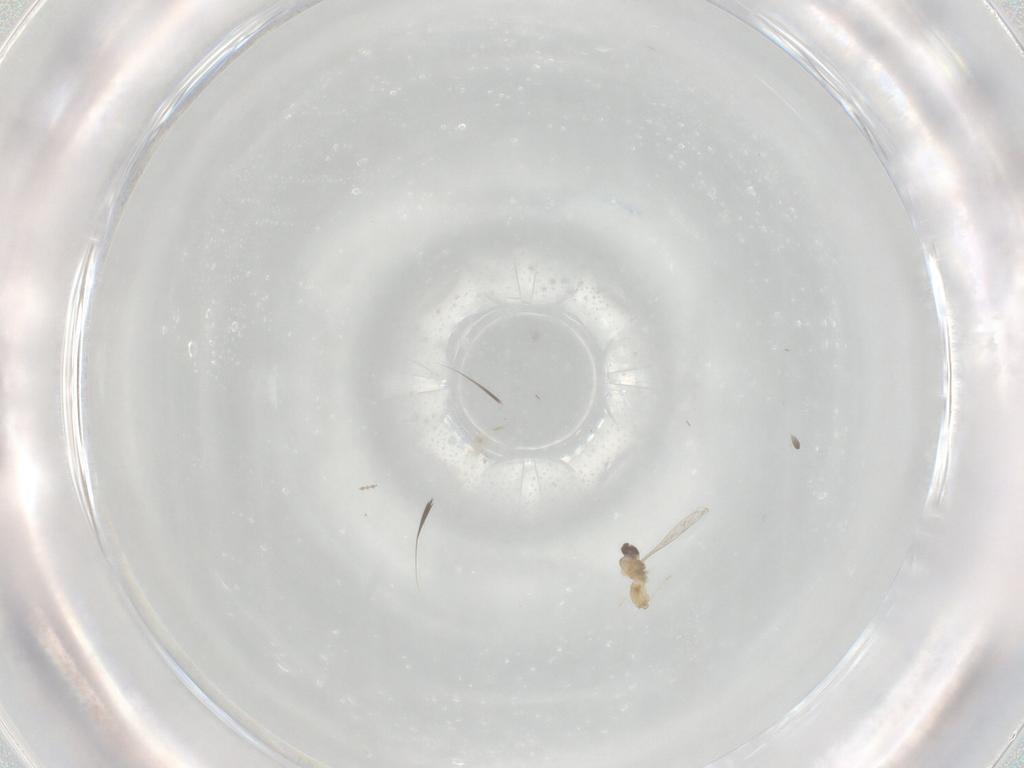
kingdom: Animalia
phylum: Arthropoda
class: Insecta
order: Diptera
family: Cecidomyiidae
